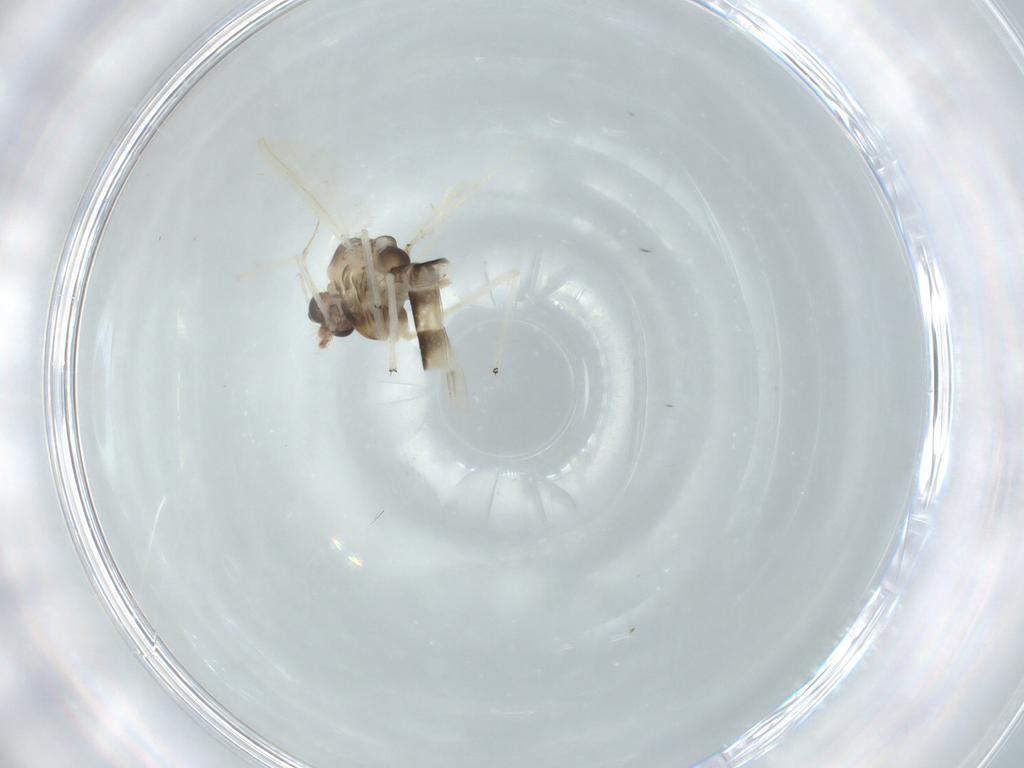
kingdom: Animalia
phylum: Arthropoda
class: Insecta
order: Diptera
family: Chironomidae
